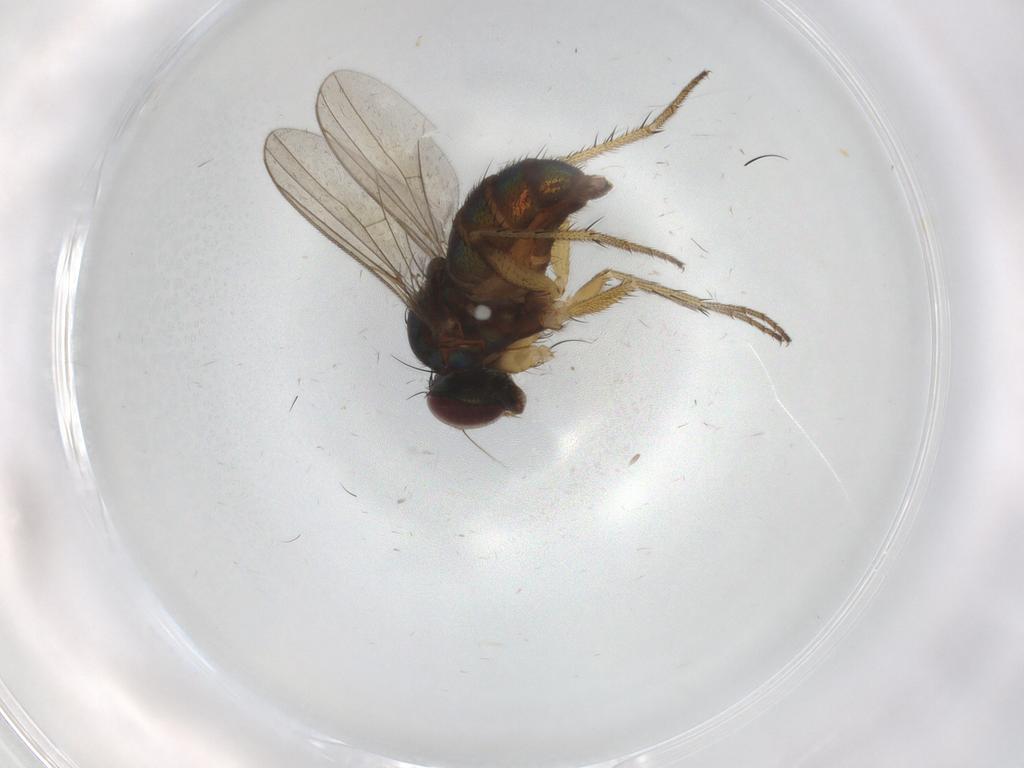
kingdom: Animalia
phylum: Arthropoda
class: Insecta
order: Diptera
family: Dolichopodidae
